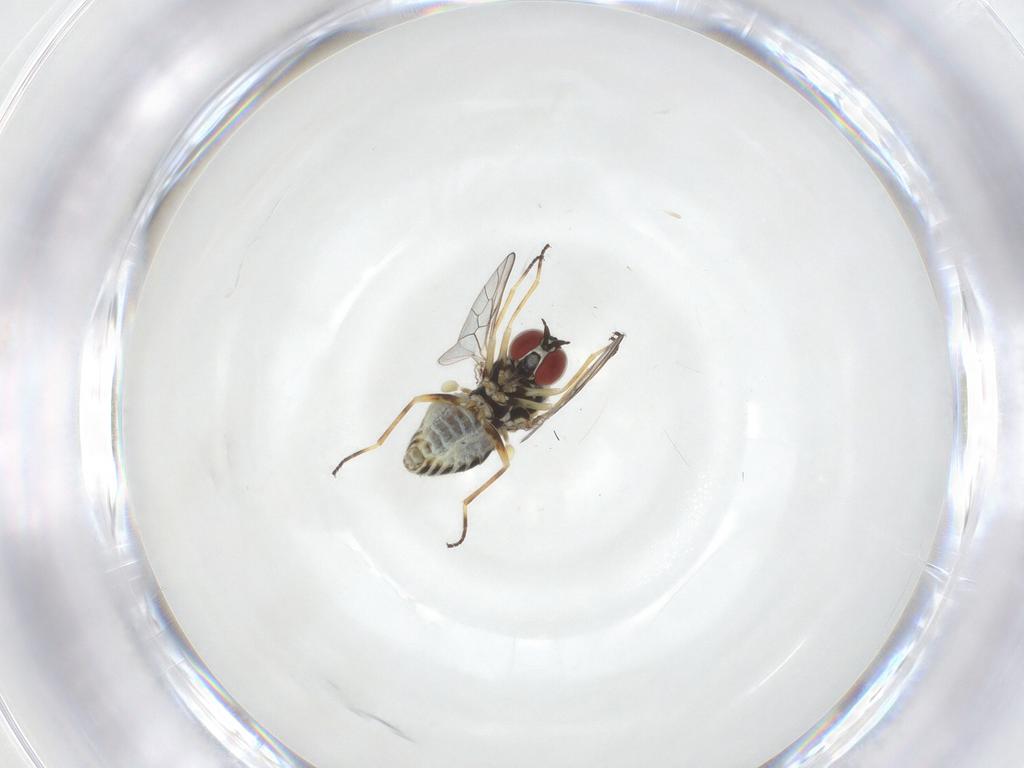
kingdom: Animalia
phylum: Arthropoda
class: Insecta
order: Diptera
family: Bombyliidae
